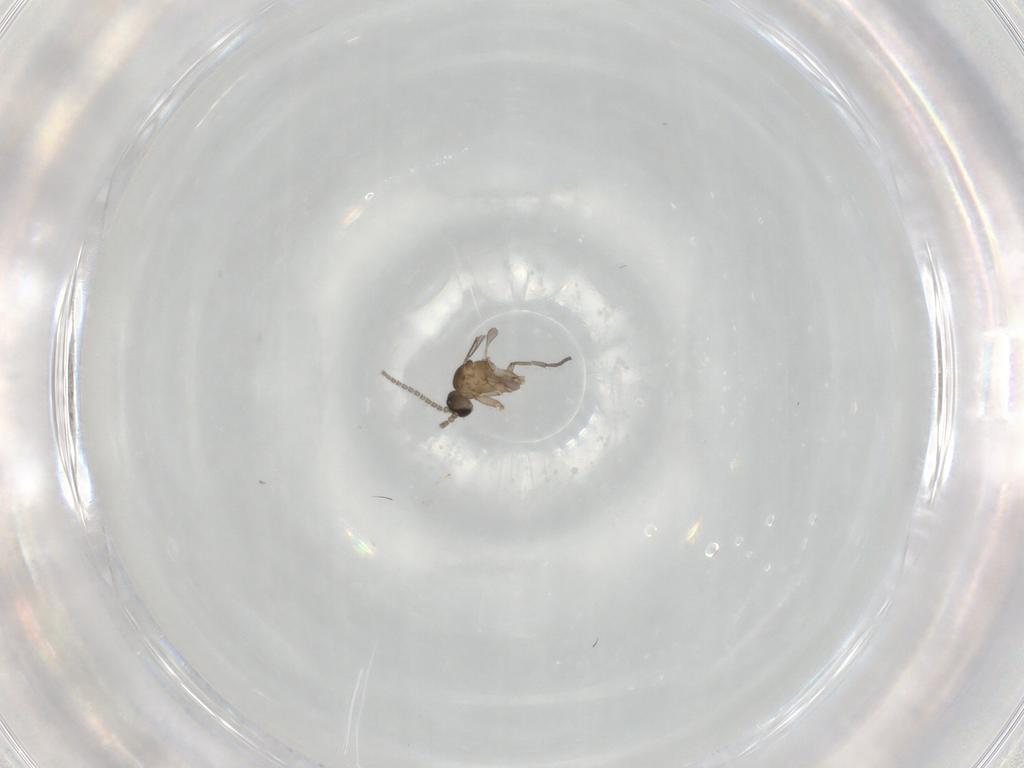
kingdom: Animalia
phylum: Arthropoda
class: Insecta
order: Diptera
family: Sciaridae
